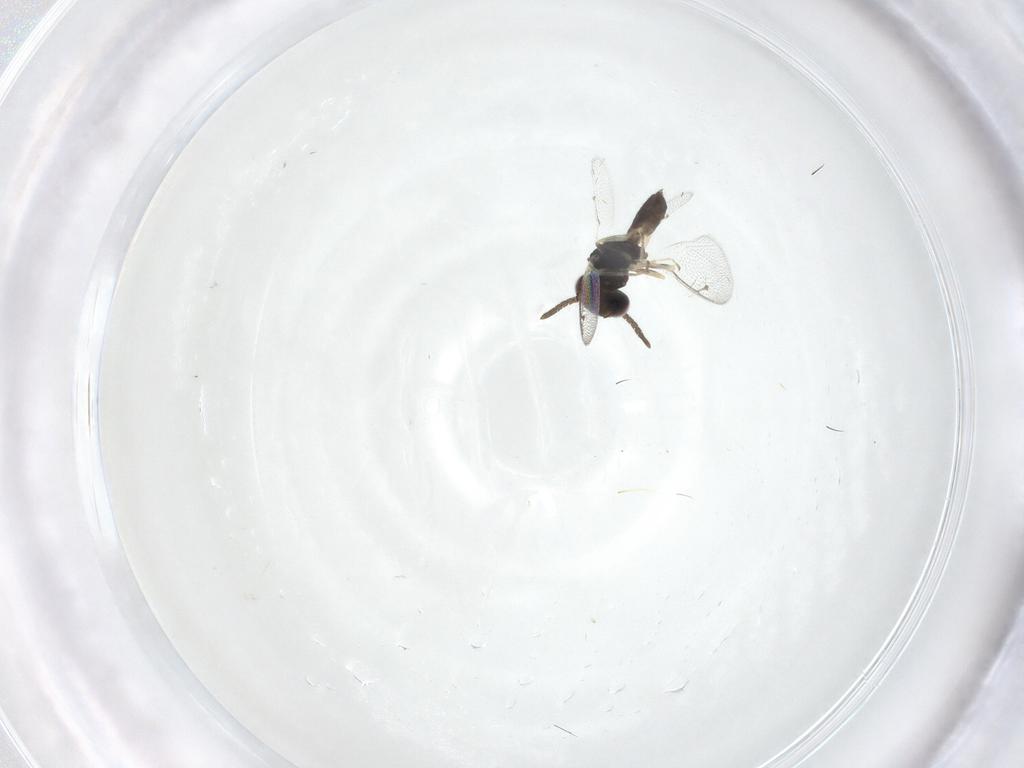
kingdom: Animalia
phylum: Arthropoda
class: Insecta
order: Hymenoptera
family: Pteromalidae
